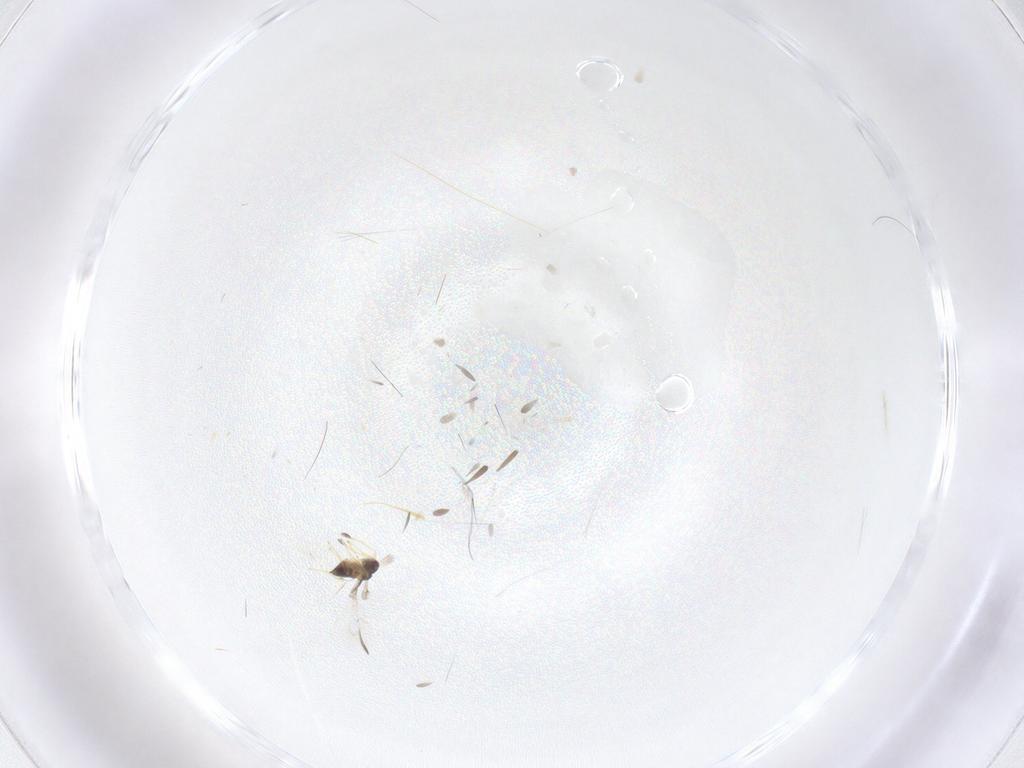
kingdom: Animalia
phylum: Arthropoda
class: Insecta
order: Hymenoptera
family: Mymaridae
